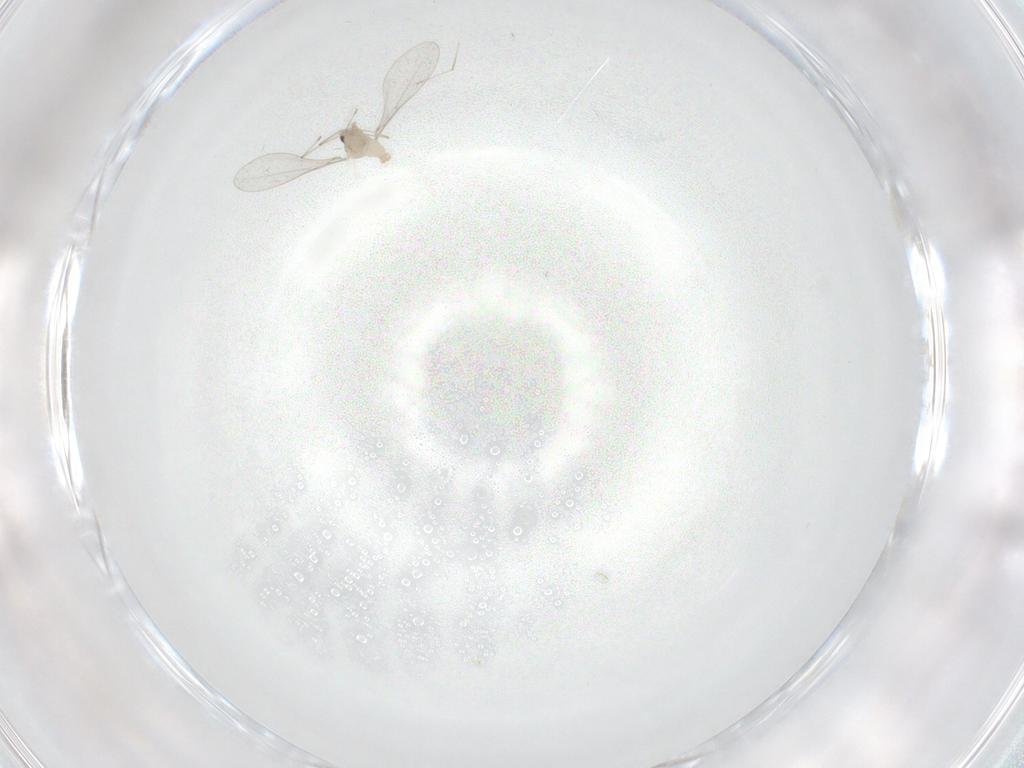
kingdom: Animalia
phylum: Arthropoda
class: Insecta
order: Diptera
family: Cecidomyiidae
